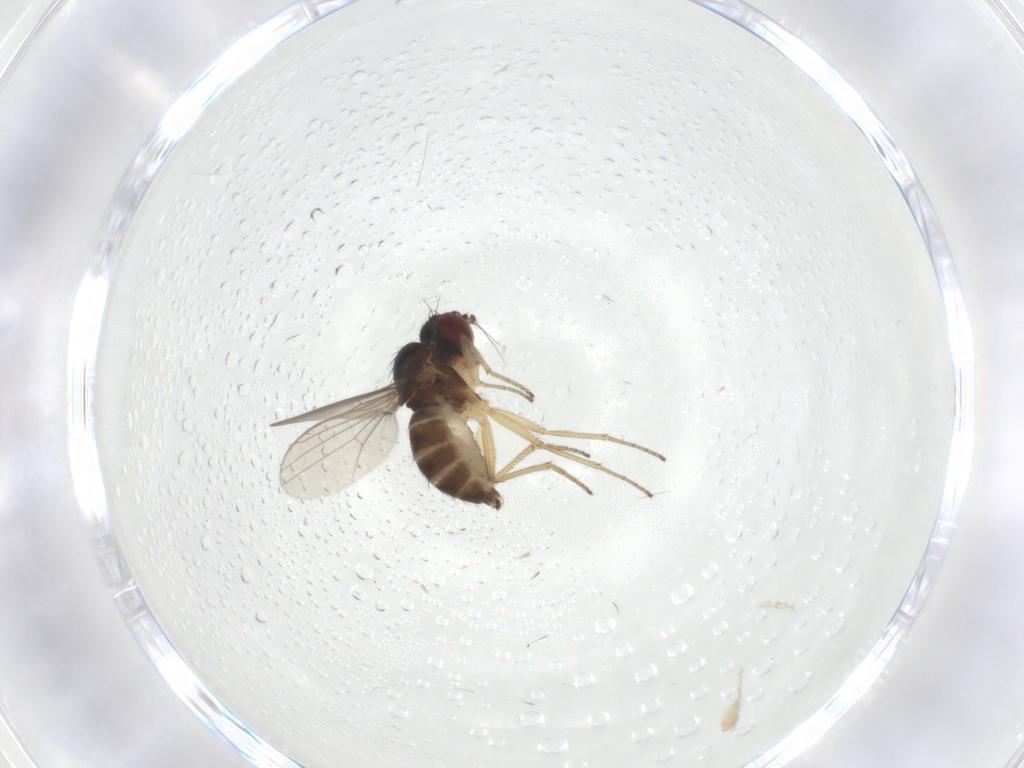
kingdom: Animalia
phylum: Arthropoda
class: Insecta
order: Diptera
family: Dolichopodidae
